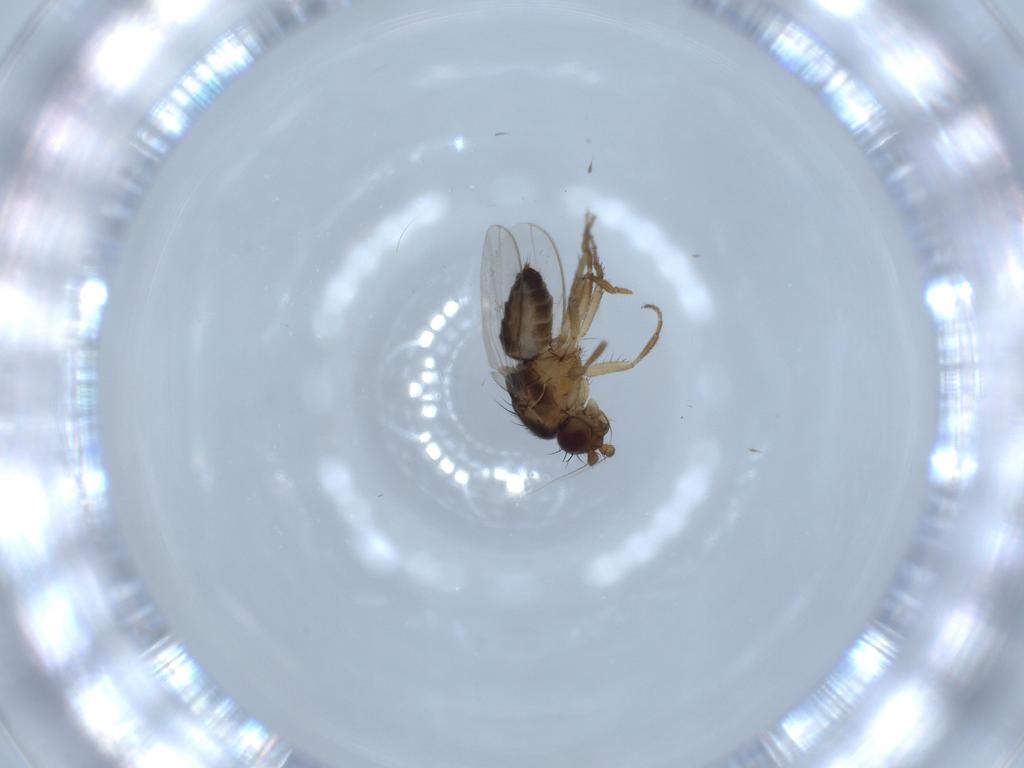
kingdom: Animalia
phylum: Arthropoda
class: Insecta
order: Diptera
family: Sphaeroceridae
